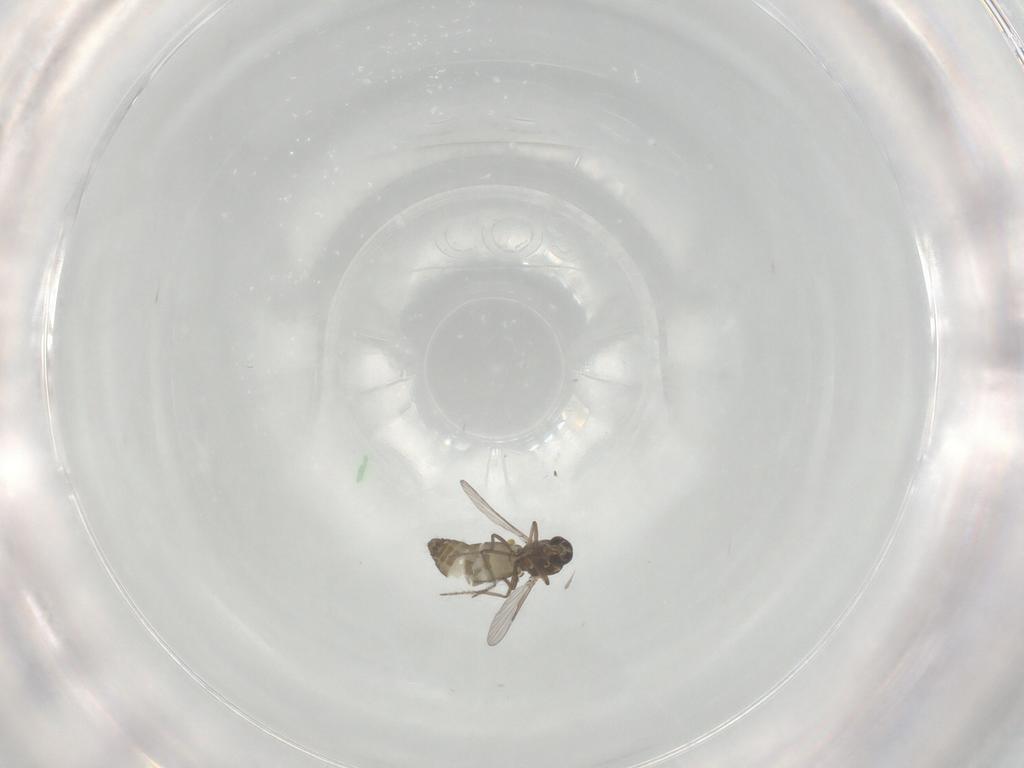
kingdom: Animalia
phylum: Arthropoda
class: Insecta
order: Diptera
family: Ceratopogonidae
